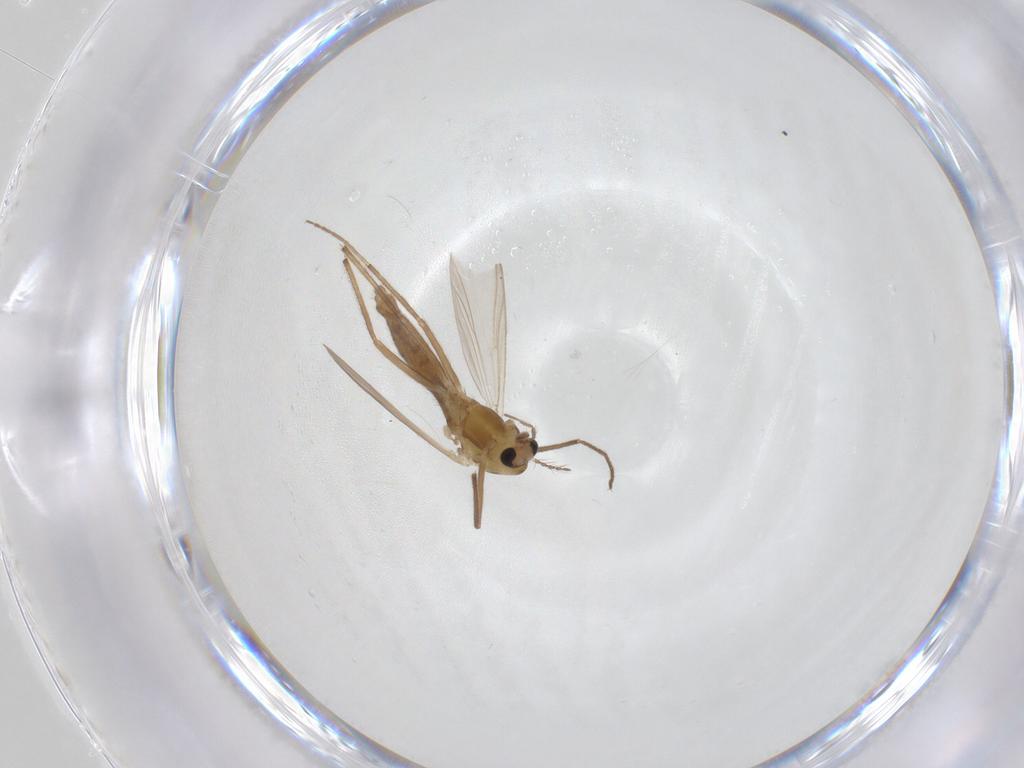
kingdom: Animalia
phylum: Arthropoda
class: Insecta
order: Diptera
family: Chironomidae
